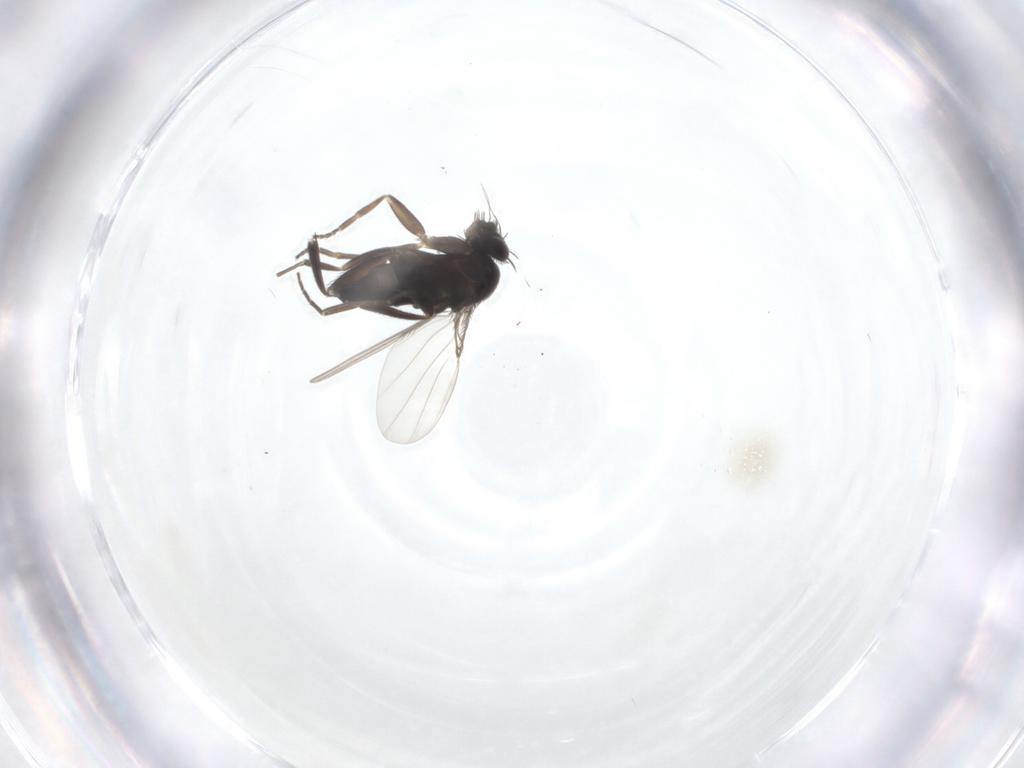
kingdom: Animalia
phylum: Arthropoda
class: Insecta
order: Diptera
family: Phoridae
